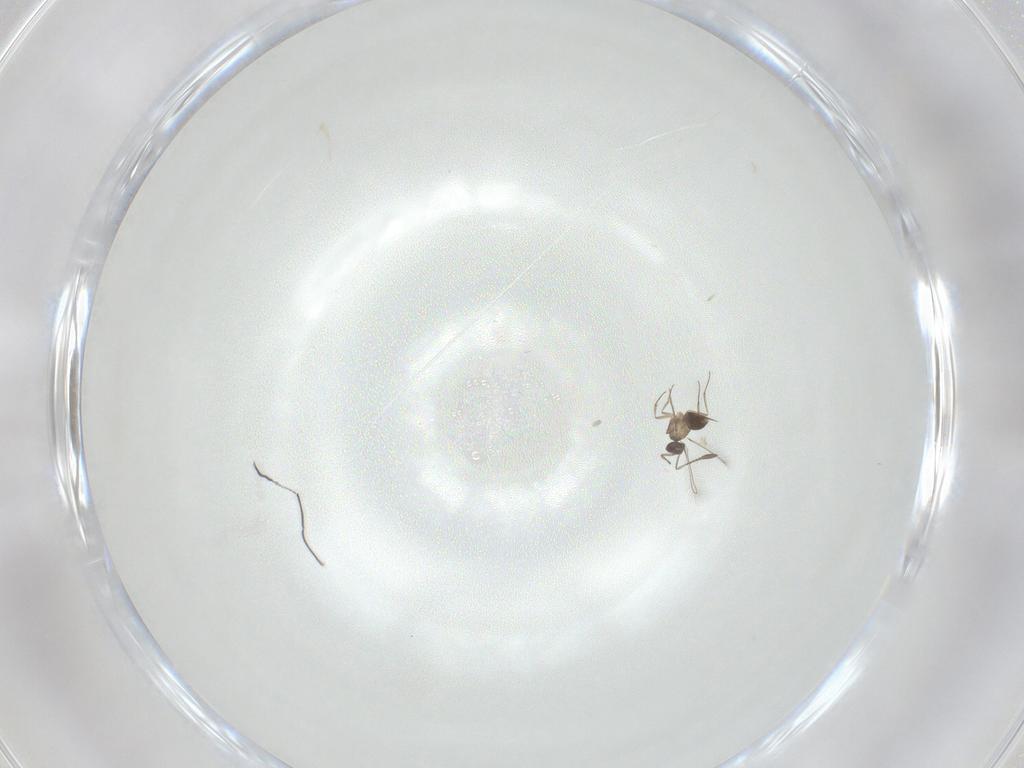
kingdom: Animalia
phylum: Arthropoda
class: Insecta
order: Hymenoptera
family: Mymaridae
